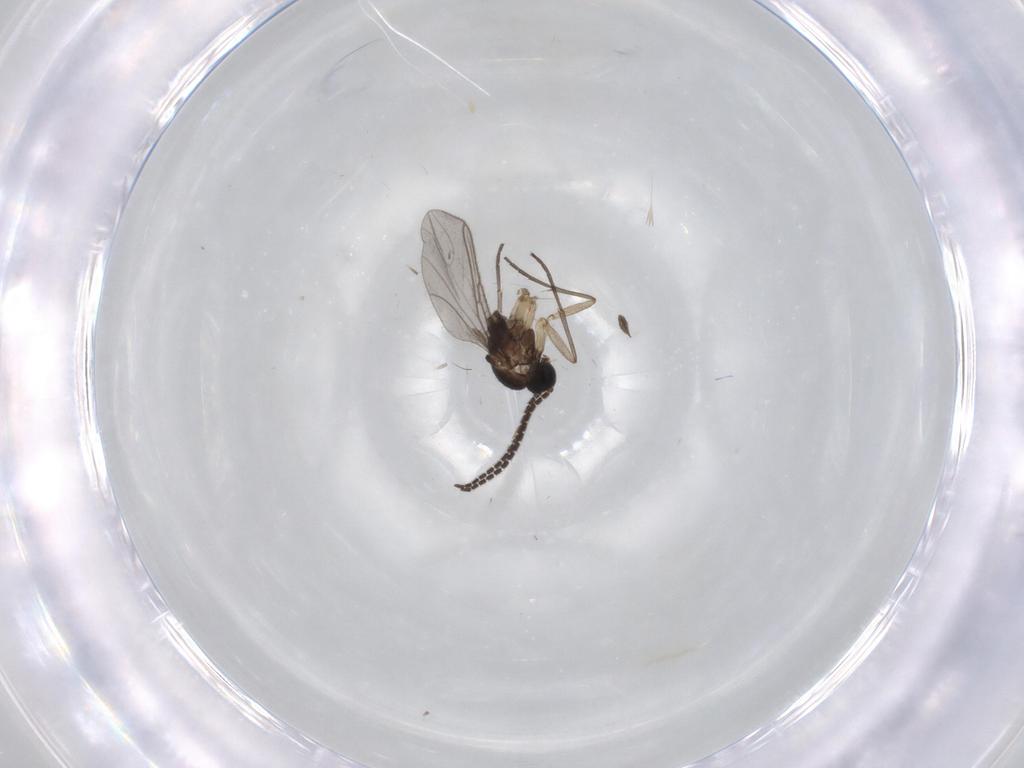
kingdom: Animalia
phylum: Arthropoda
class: Insecta
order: Diptera
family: Sciaridae
